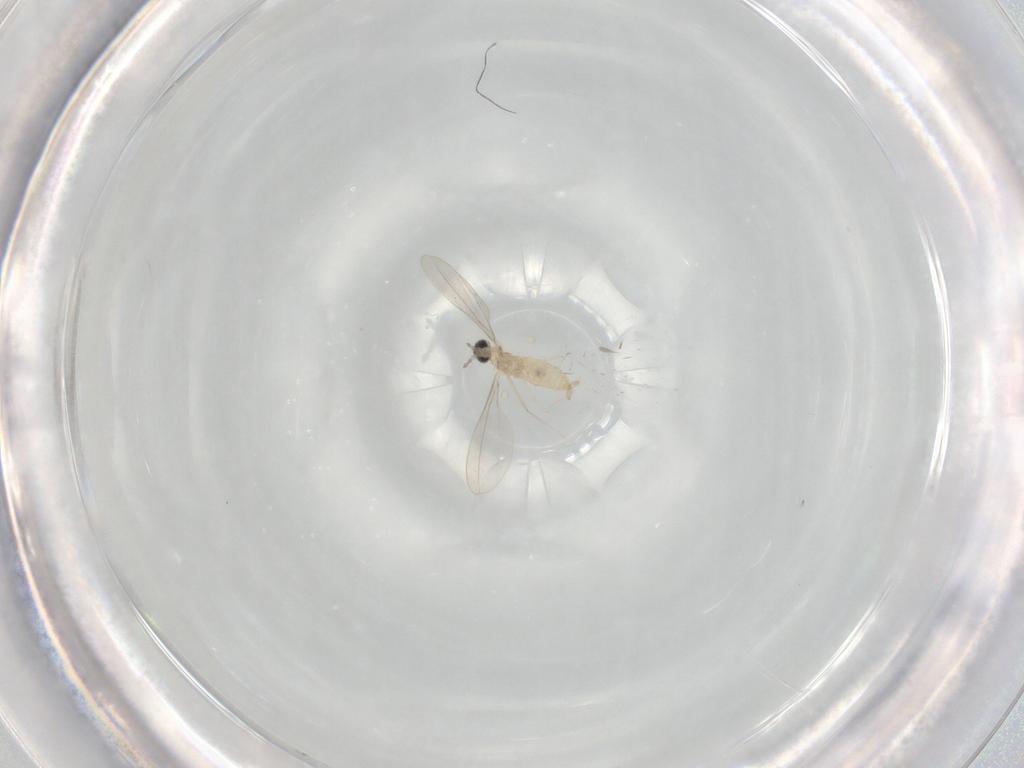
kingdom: Animalia
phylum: Arthropoda
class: Insecta
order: Diptera
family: Cecidomyiidae
